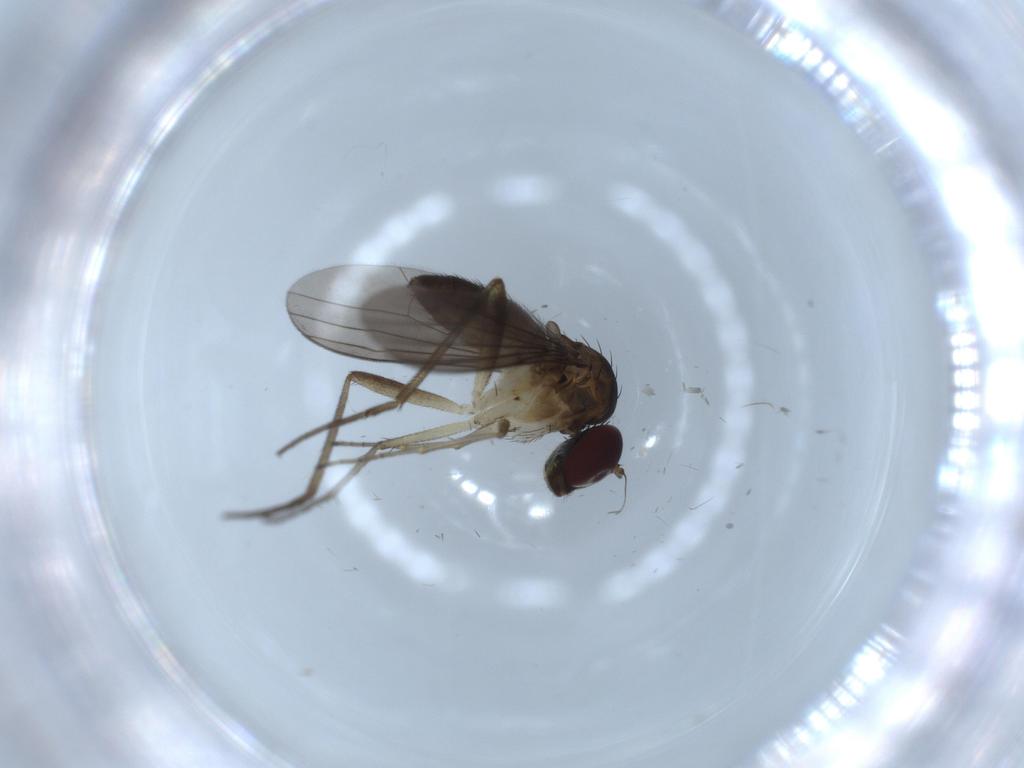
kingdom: Animalia
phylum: Arthropoda
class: Insecta
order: Diptera
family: Dolichopodidae
